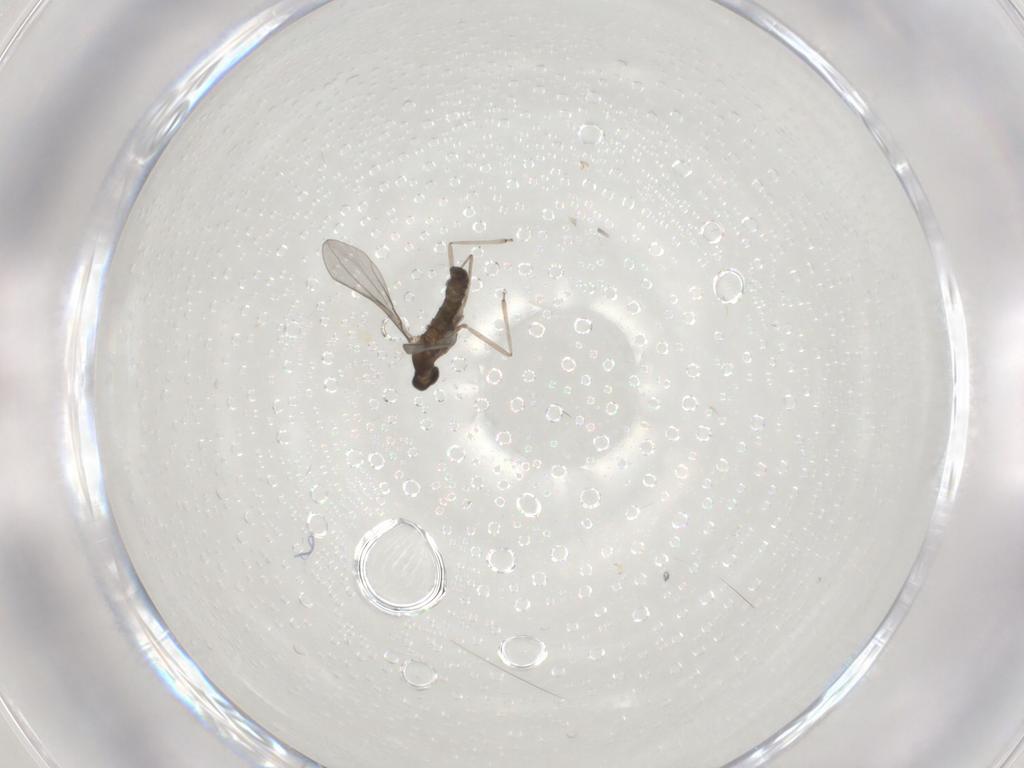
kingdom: Animalia
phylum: Arthropoda
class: Insecta
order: Diptera
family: Cecidomyiidae
